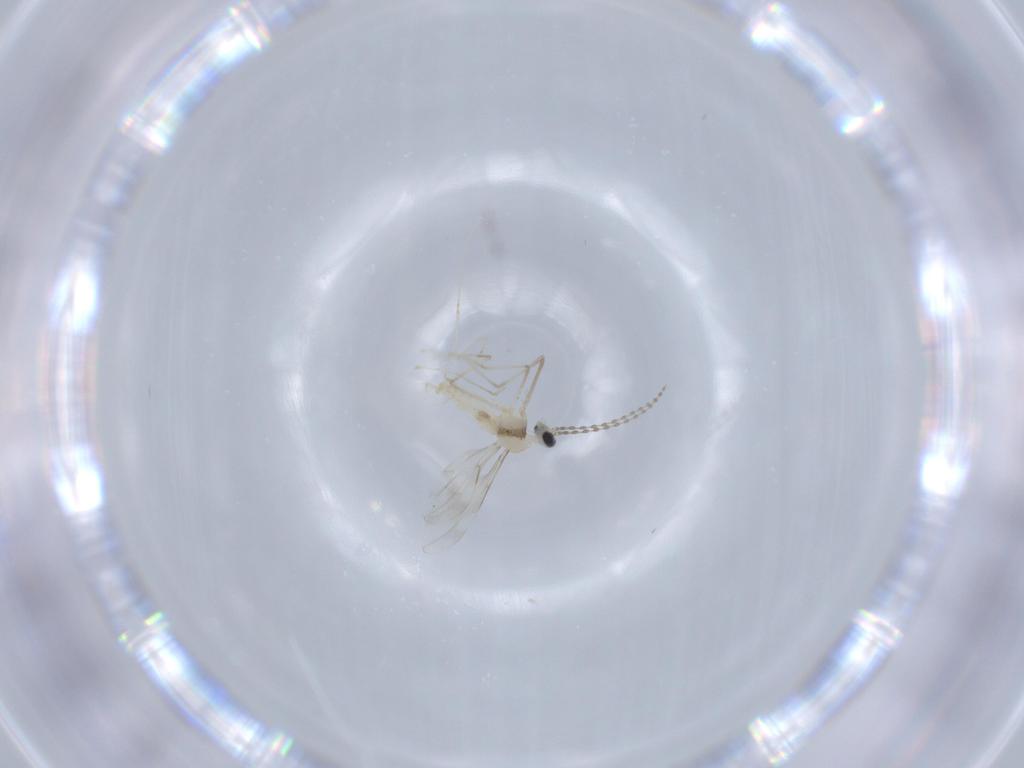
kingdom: Animalia
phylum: Arthropoda
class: Insecta
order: Diptera
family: Cecidomyiidae
